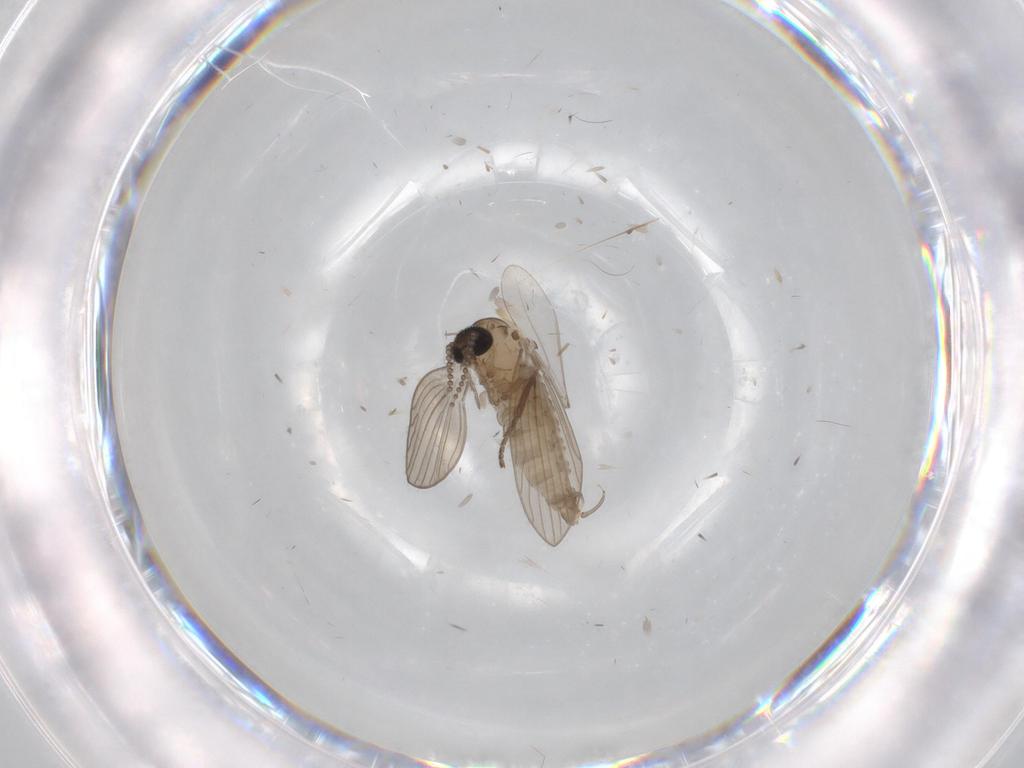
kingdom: Animalia
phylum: Arthropoda
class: Insecta
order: Diptera
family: Psychodidae
